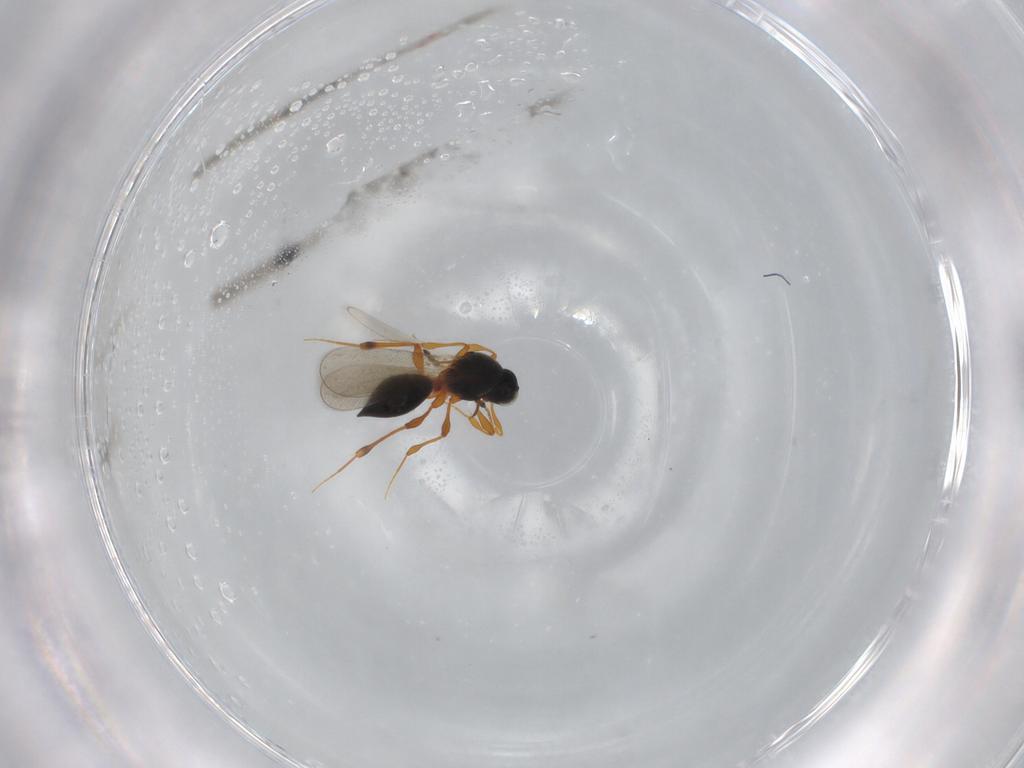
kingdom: Animalia
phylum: Arthropoda
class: Insecta
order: Hymenoptera
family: Platygastridae
